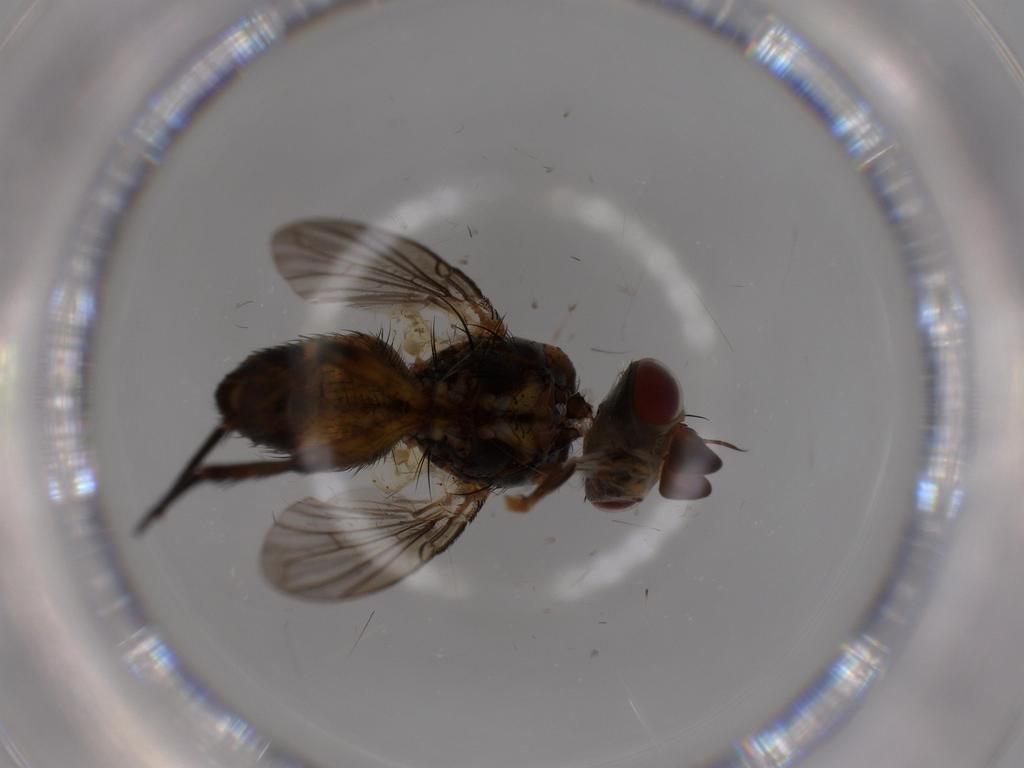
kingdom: Animalia
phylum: Arthropoda
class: Insecta
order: Diptera
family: Tachinidae
